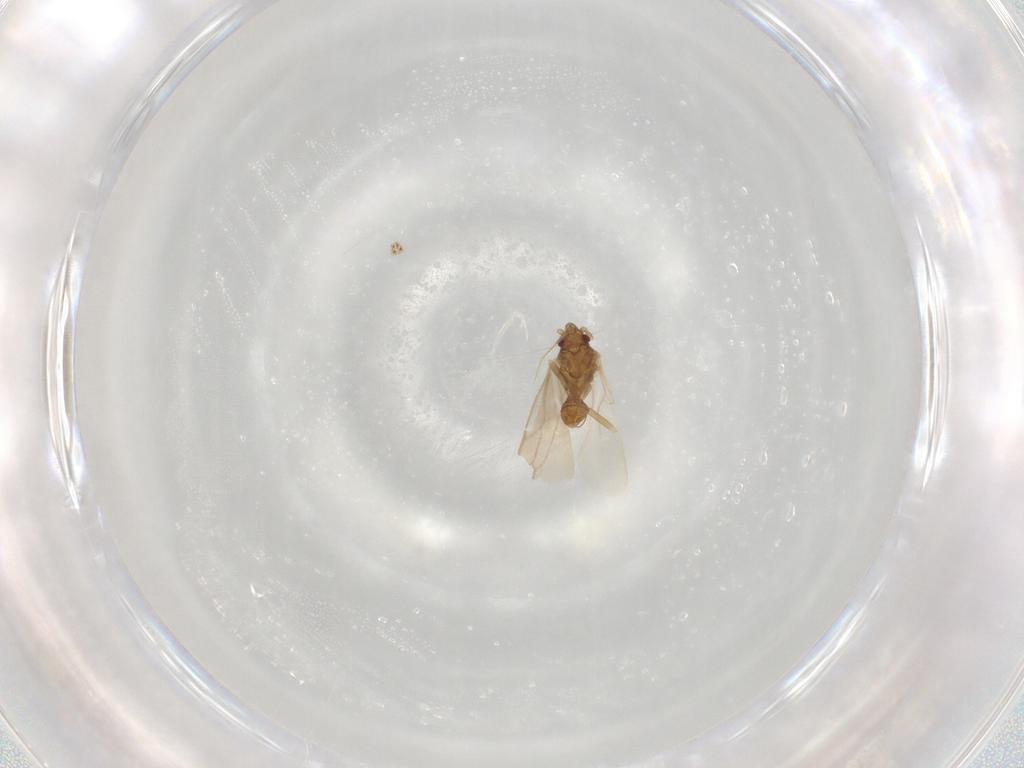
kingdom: Animalia
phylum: Arthropoda
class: Insecta
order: Hemiptera
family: Ceratocombidae
